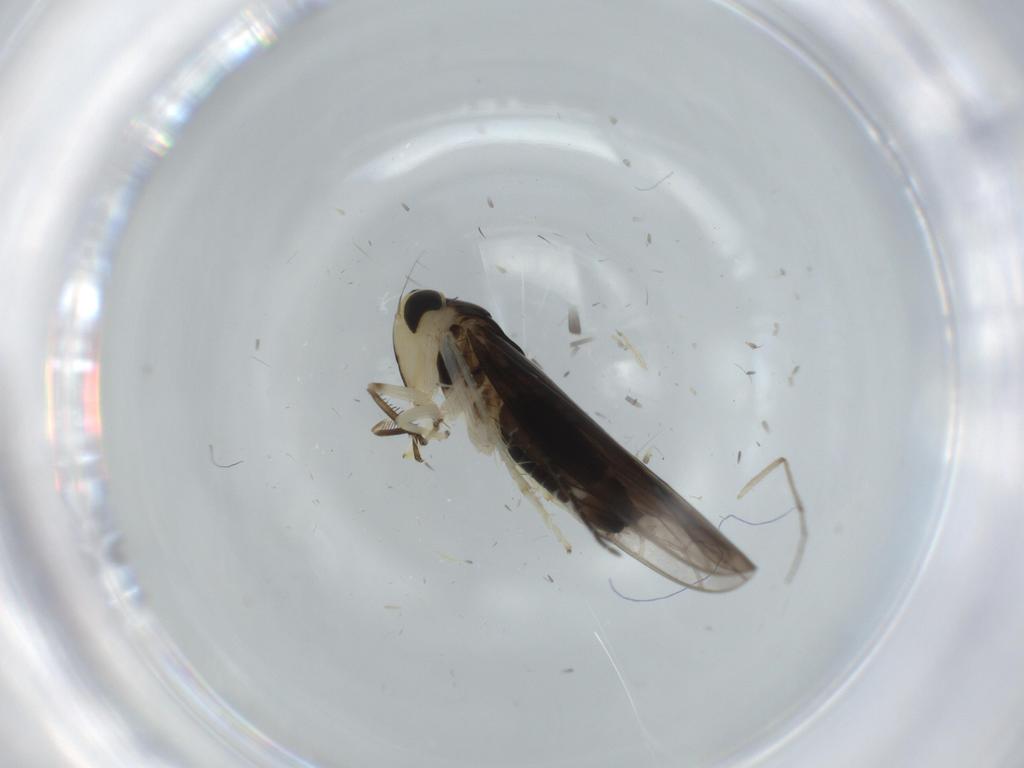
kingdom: Animalia
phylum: Arthropoda
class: Insecta
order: Hemiptera
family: Cicadellidae
